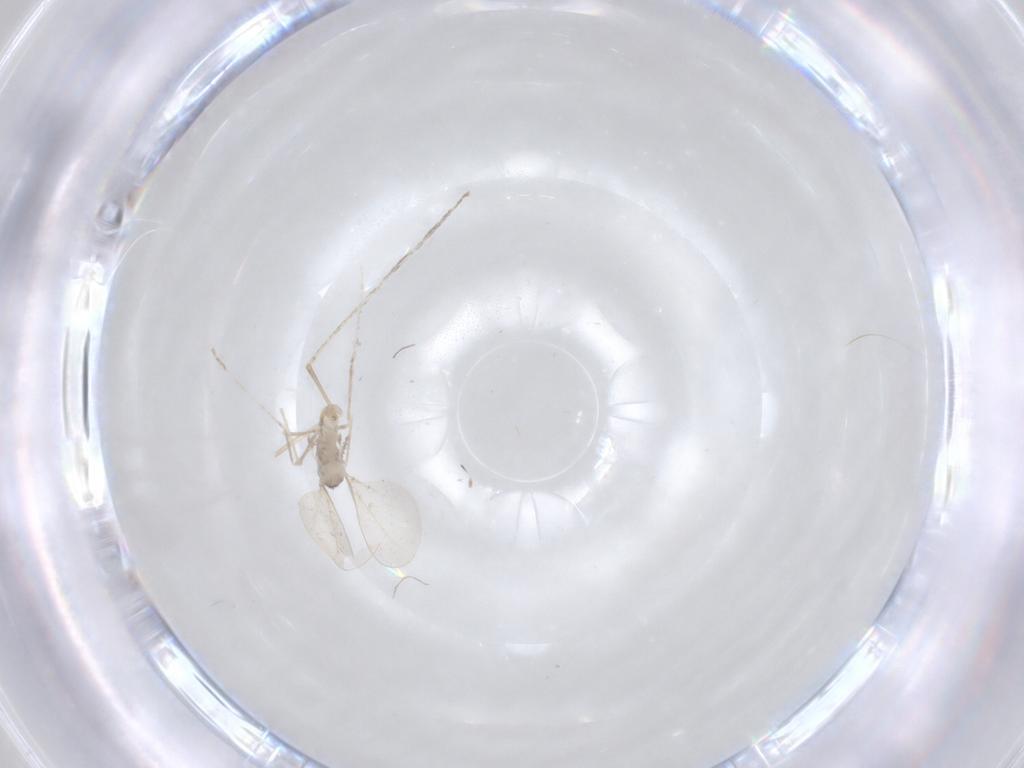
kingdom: Animalia
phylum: Arthropoda
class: Insecta
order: Diptera
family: Cecidomyiidae
